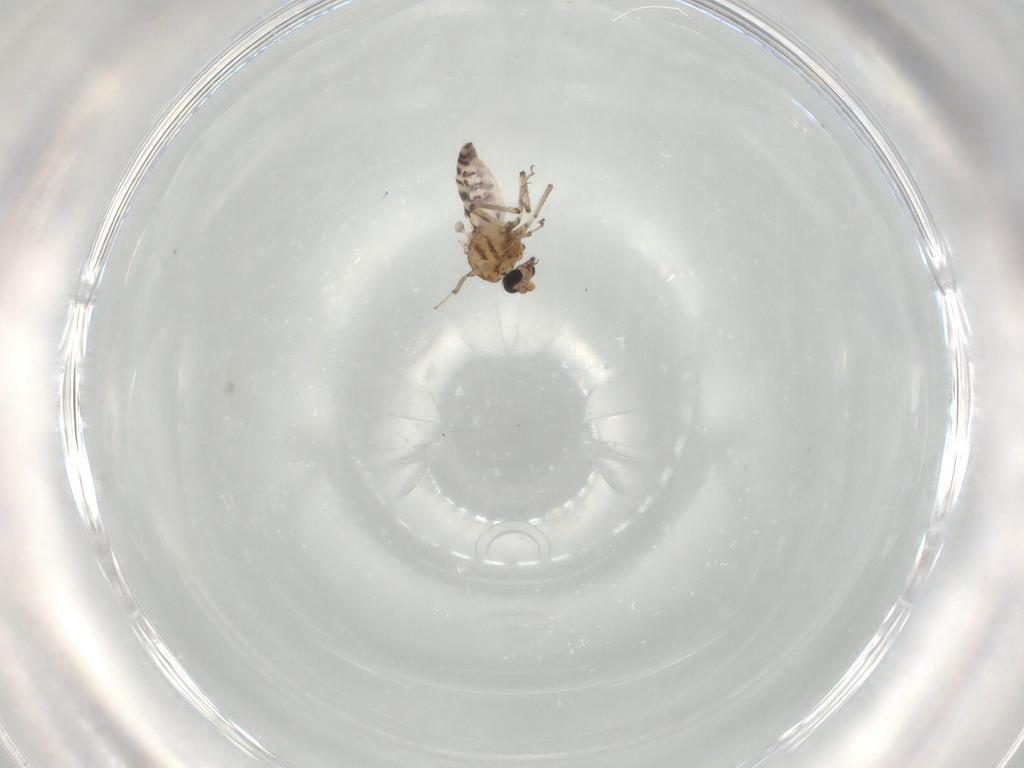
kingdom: Animalia
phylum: Arthropoda
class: Insecta
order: Diptera
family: Ceratopogonidae
